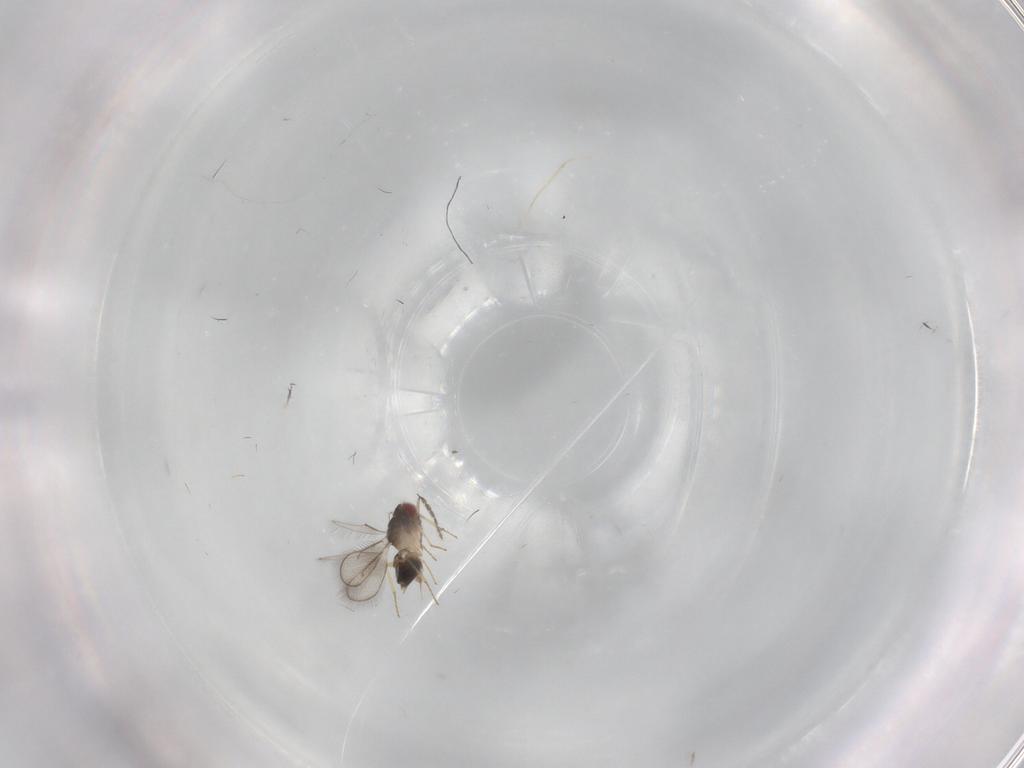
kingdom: Animalia
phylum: Arthropoda
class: Insecta
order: Hymenoptera
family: Eulophidae
